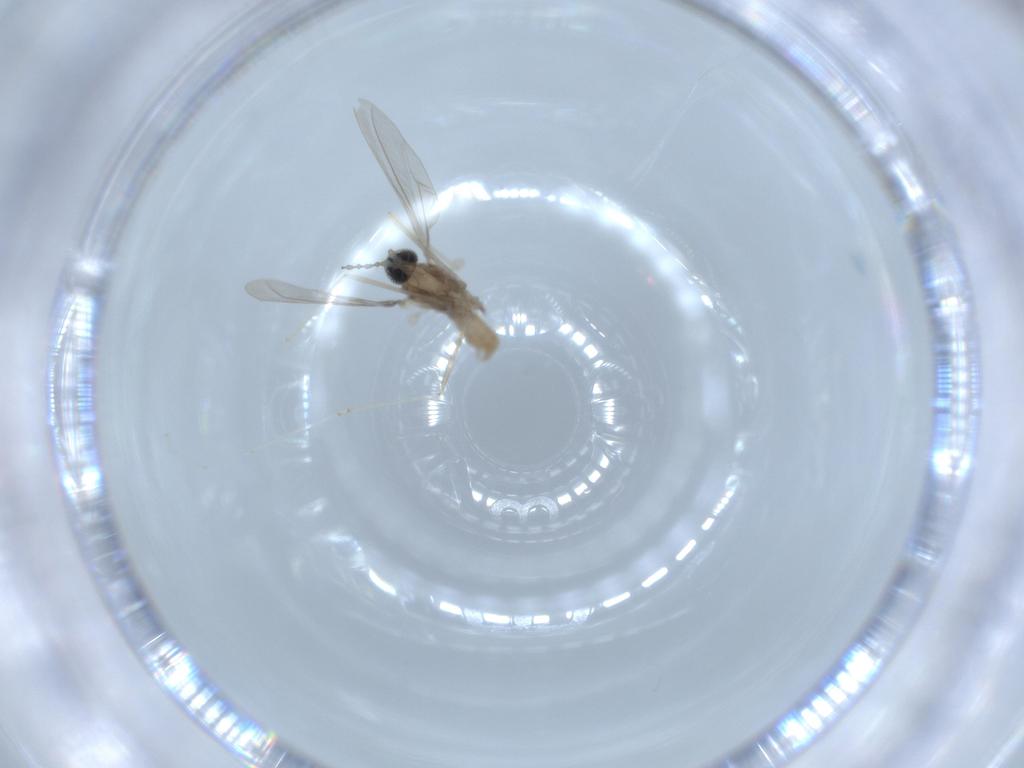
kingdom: Animalia
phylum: Arthropoda
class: Insecta
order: Diptera
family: Cecidomyiidae
